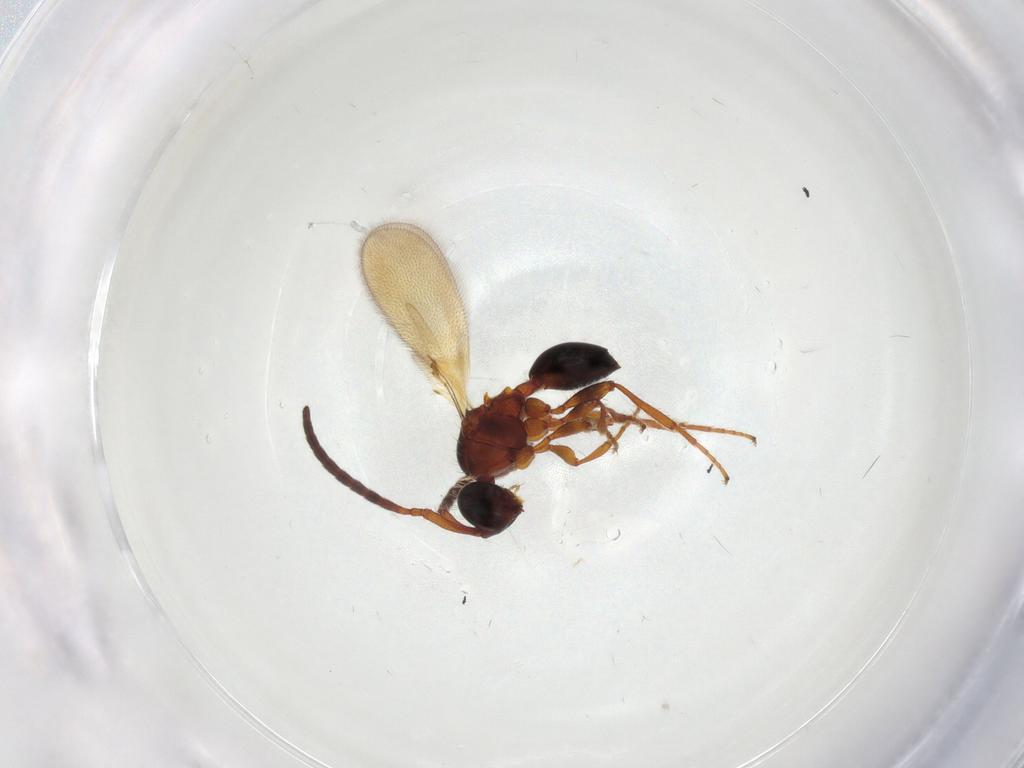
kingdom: Animalia
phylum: Arthropoda
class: Insecta
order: Hymenoptera
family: Diapriidae
